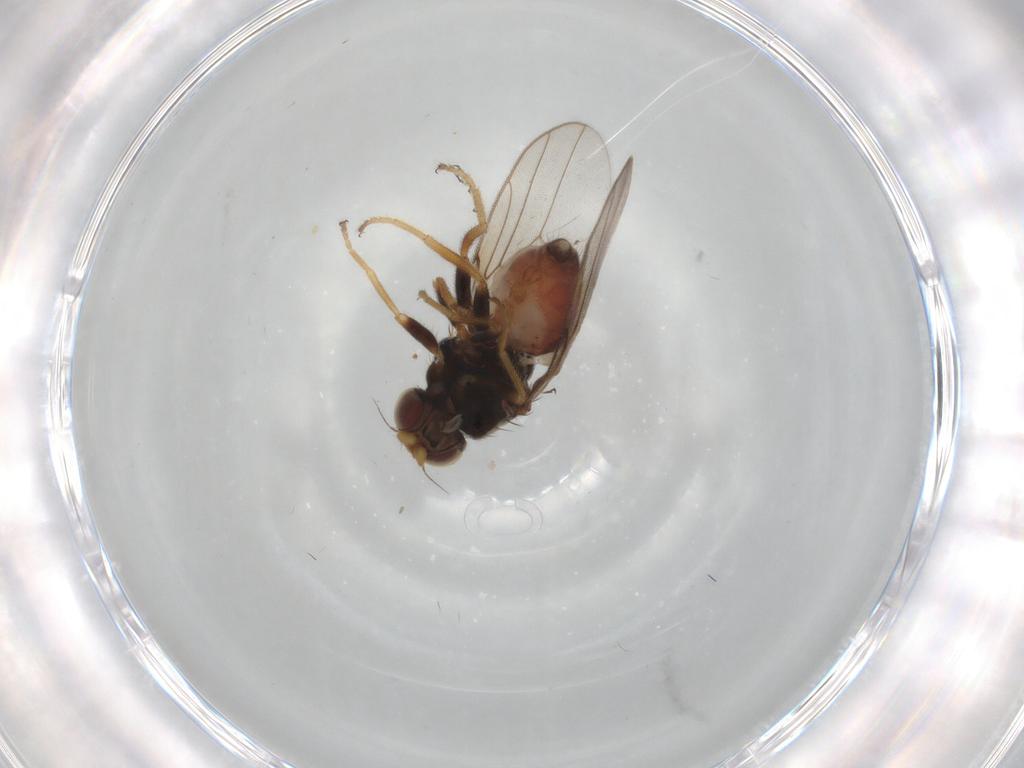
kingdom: Animalia
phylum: Arthropoda
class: Insecta
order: Diptera
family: Chloropidae
